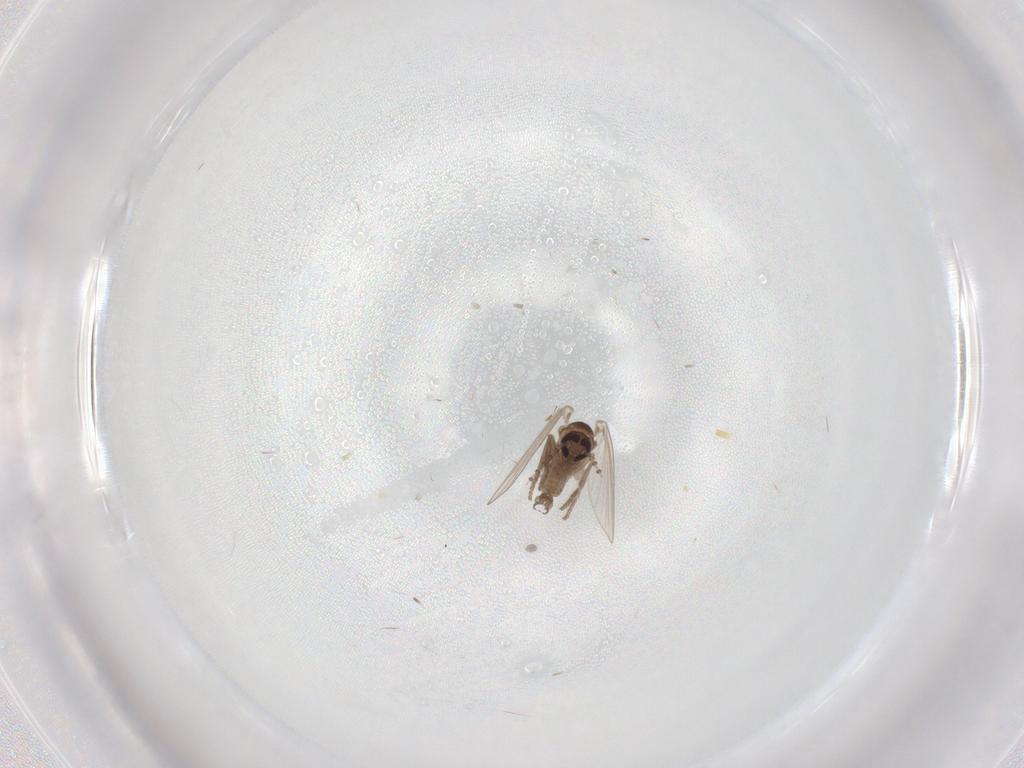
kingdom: Animalia
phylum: Arthropoda
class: Insecta
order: Diptera
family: Psychodidae
